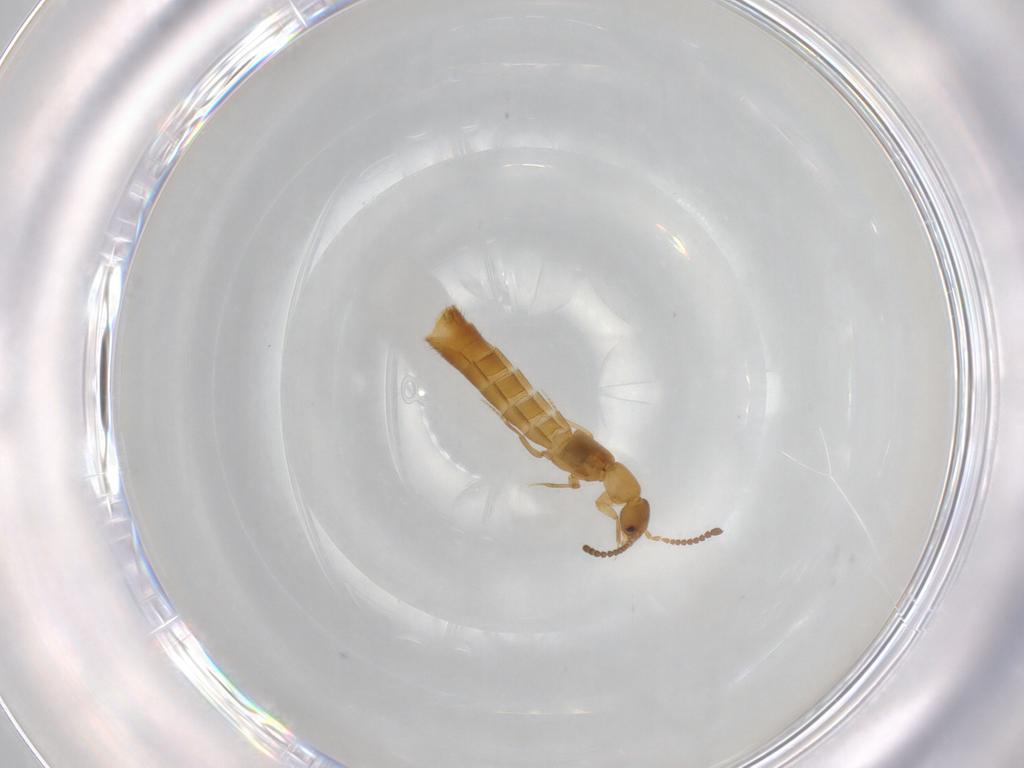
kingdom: Animalia
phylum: Arthropoda
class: Insecta
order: Coleoptera
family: Staphylinidae
